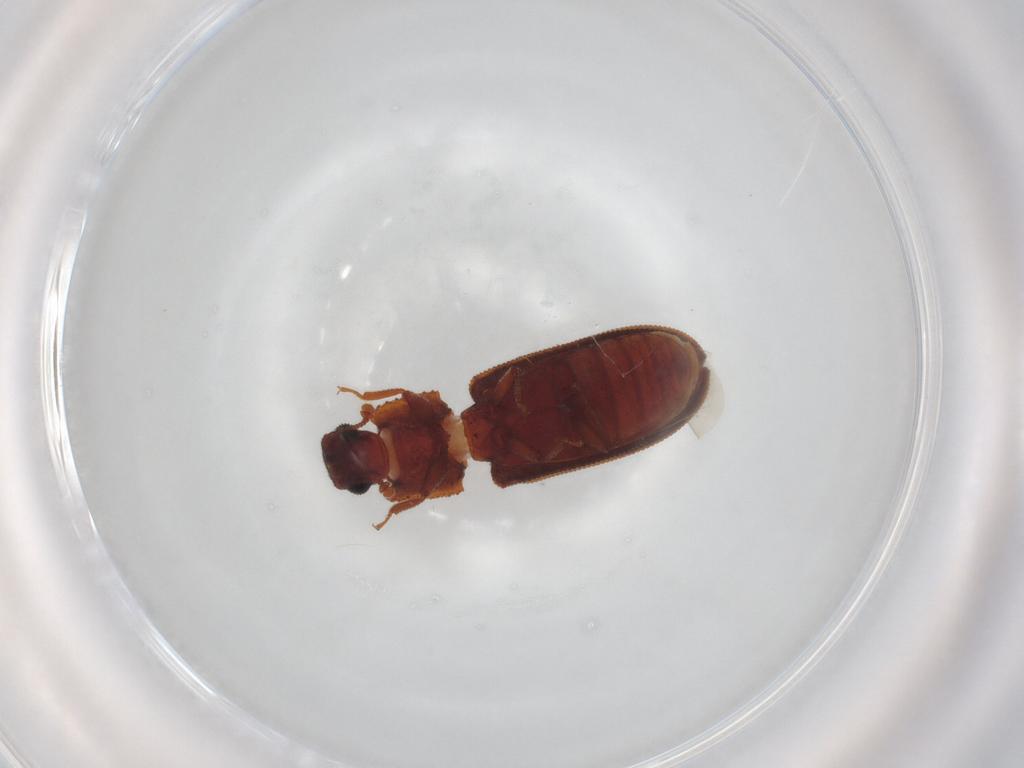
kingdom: Animalia
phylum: Arthropoda
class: Insecta
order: Coleoptera
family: Zopheridae
